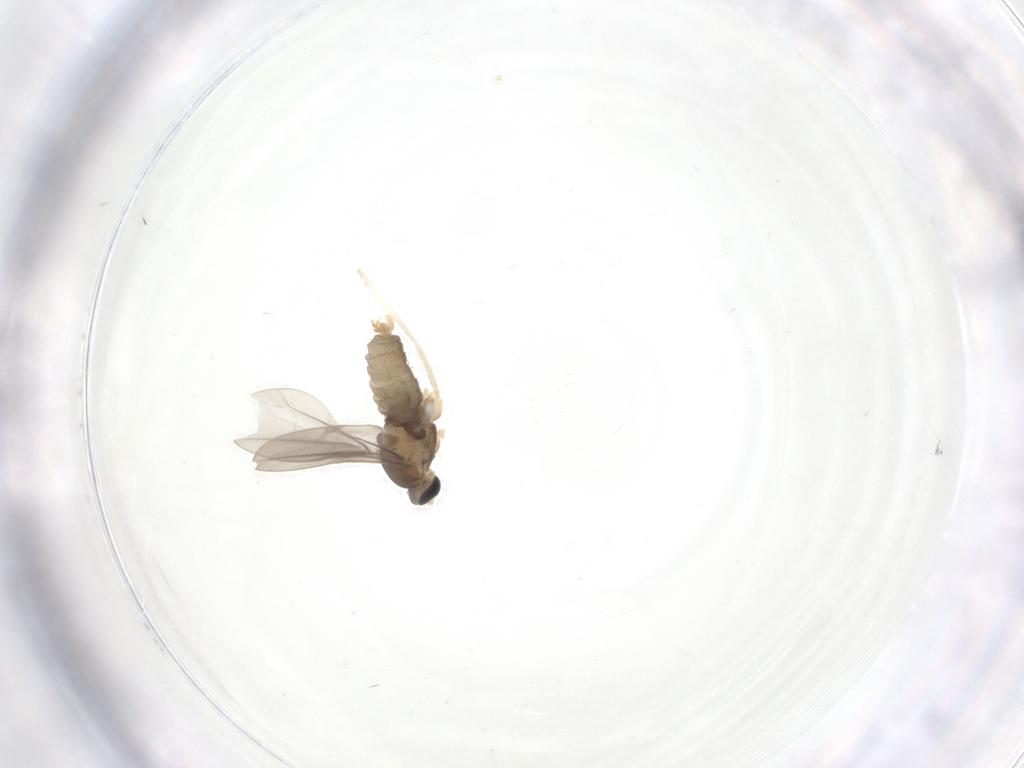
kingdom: Animalia
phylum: Arthropoda
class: Insecta
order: Diptera
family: Cecidomyiidae
